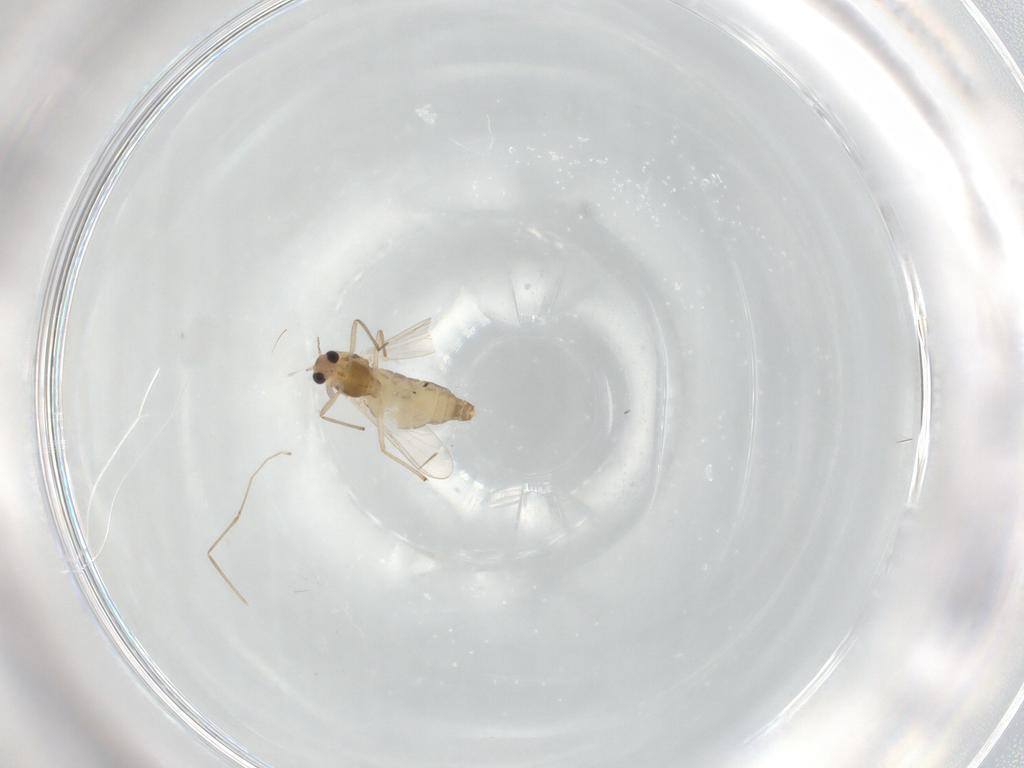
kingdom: Animalia
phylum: Arthropoda
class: Insecta
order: Diptera
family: Chironomidae
